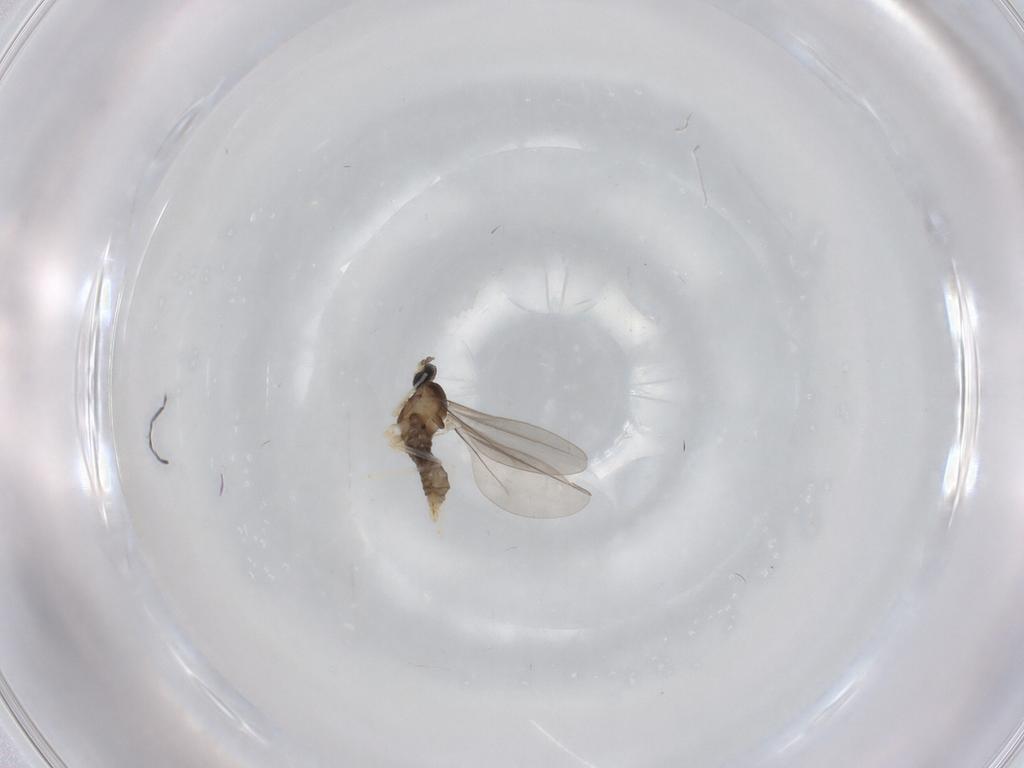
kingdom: Animalia
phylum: Arthropoda
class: Insecta
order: Diptera
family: Cecidomyiidae
